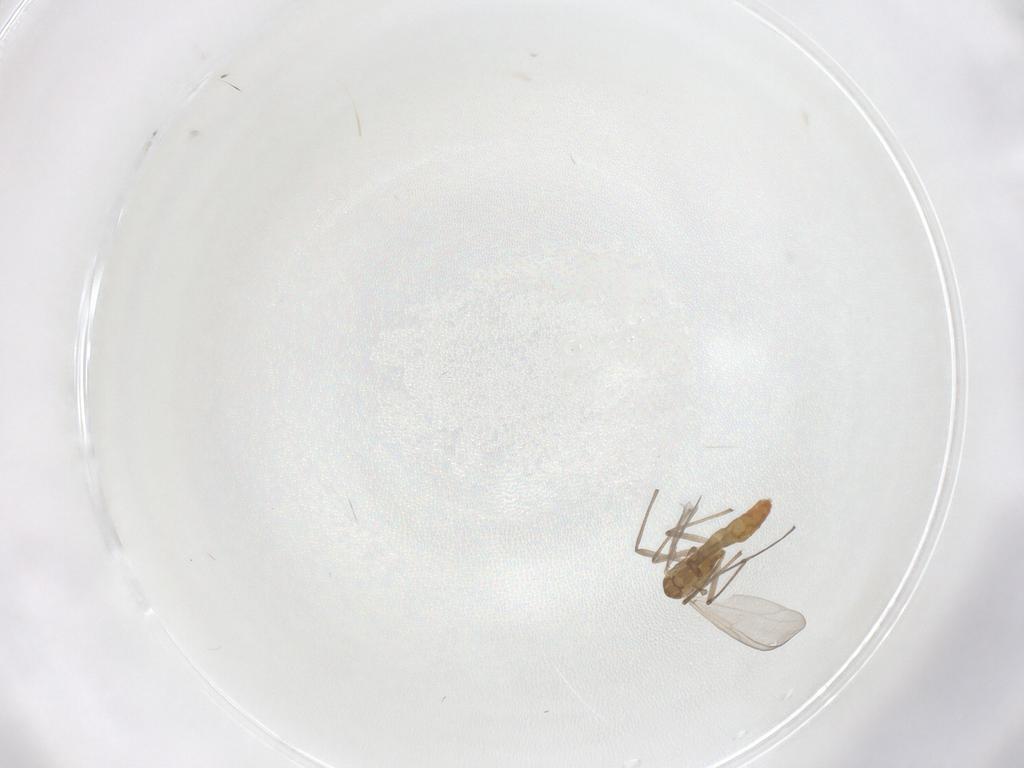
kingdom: Animalia
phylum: Arthropoda
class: Insecta
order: Diptera
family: Chironomidae
